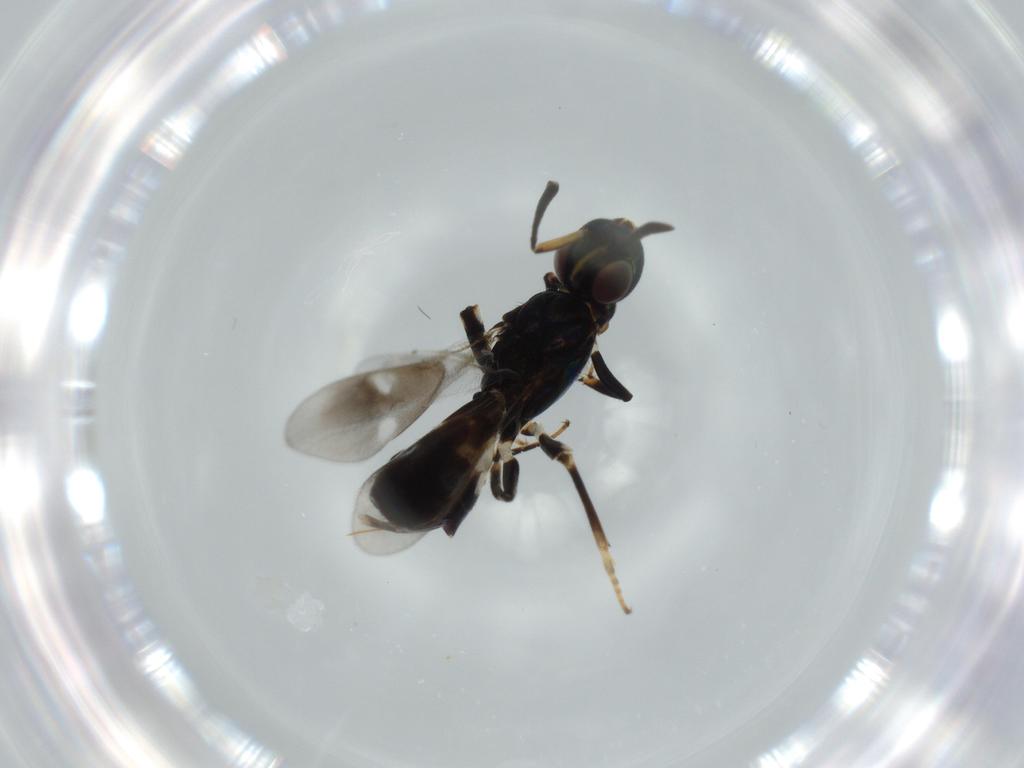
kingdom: Animalia
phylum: Arthropoda
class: Insecta
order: Hymenoptera
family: Eupelmidae
